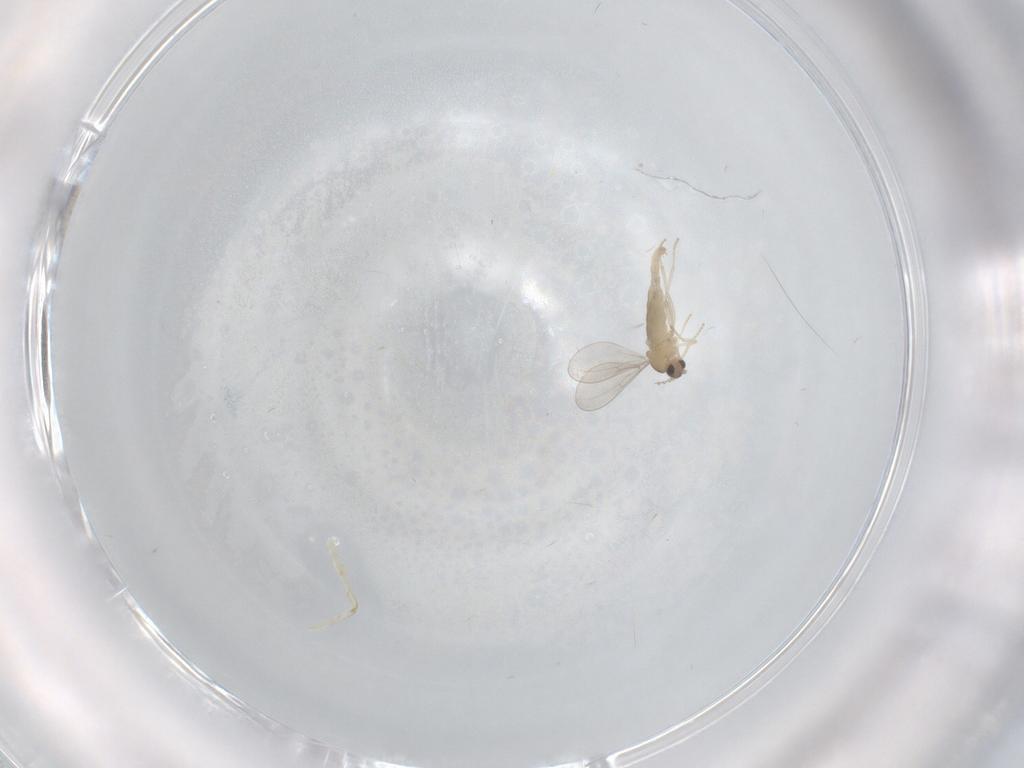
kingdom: Animalia
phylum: Arthropoda
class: Insecta
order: Diptera
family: Cecidomyiidae
